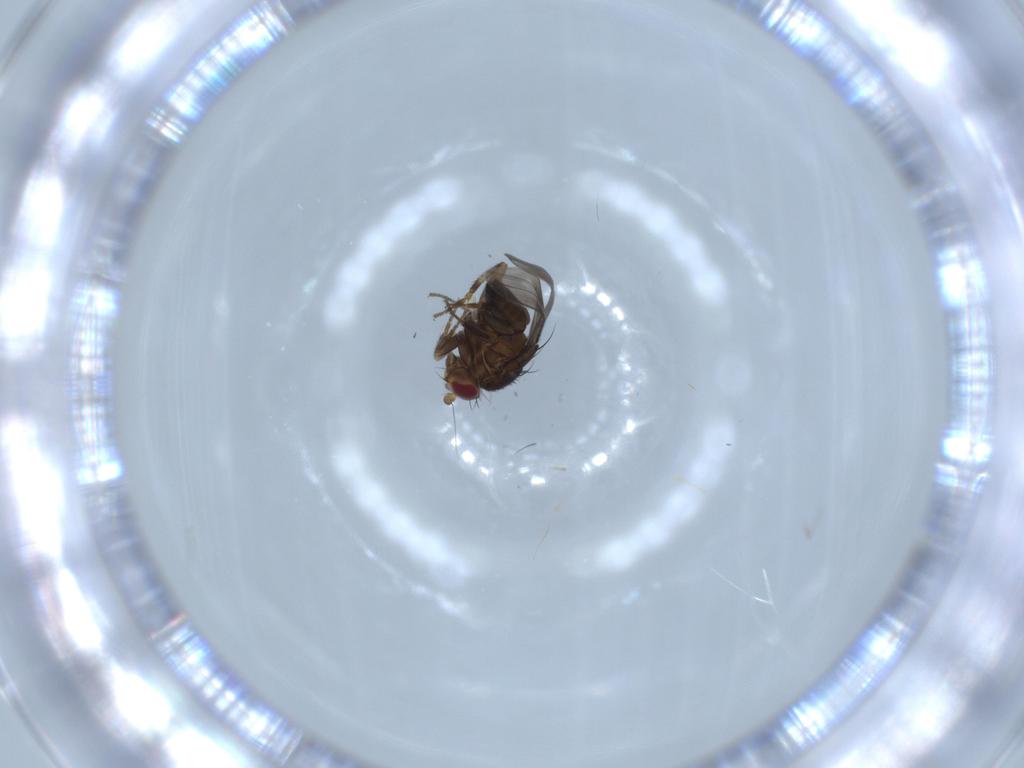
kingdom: Animalia
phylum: Arthropoda
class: Insecta
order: Diptera
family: Sphaeroceridae
